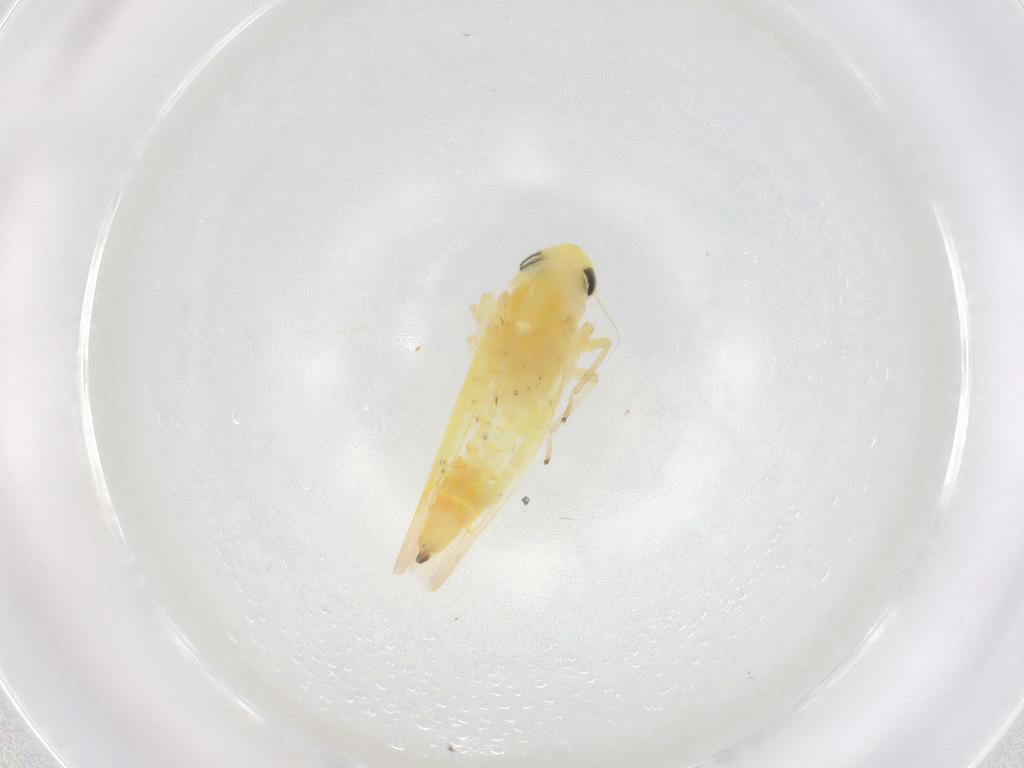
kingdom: Animalia
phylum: Arthropoda
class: Insecta
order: Hemiptera
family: Cicadellidae
